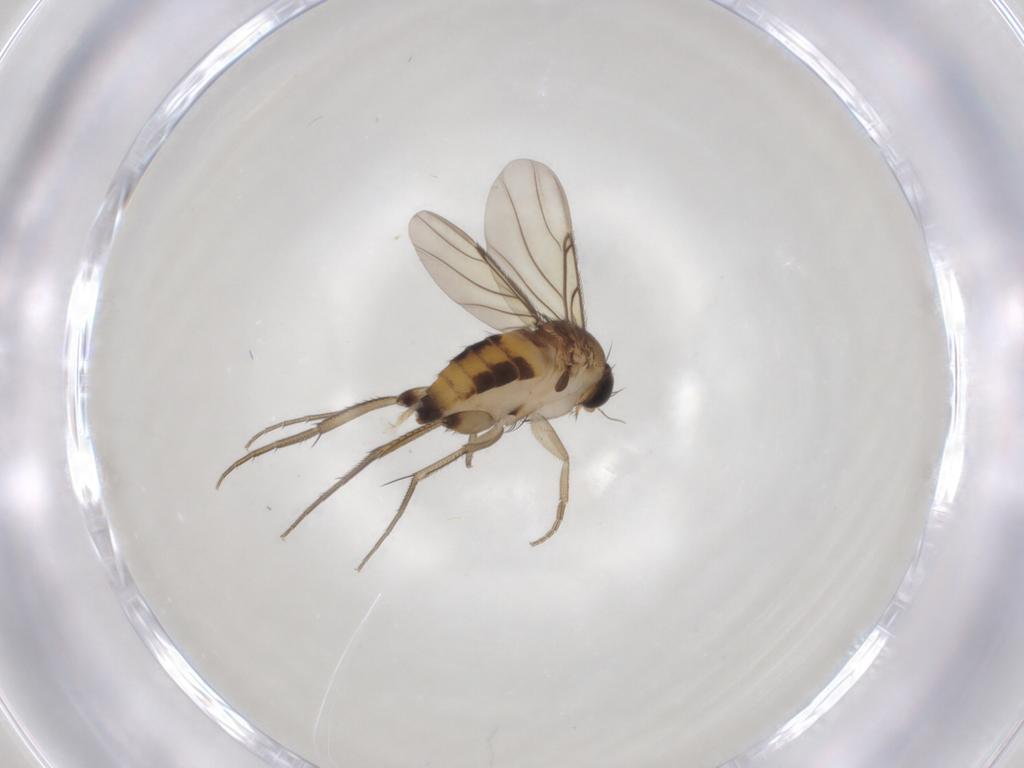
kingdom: Animalia
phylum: Arthropoda
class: Insecta
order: Diptera
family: Phoridae
